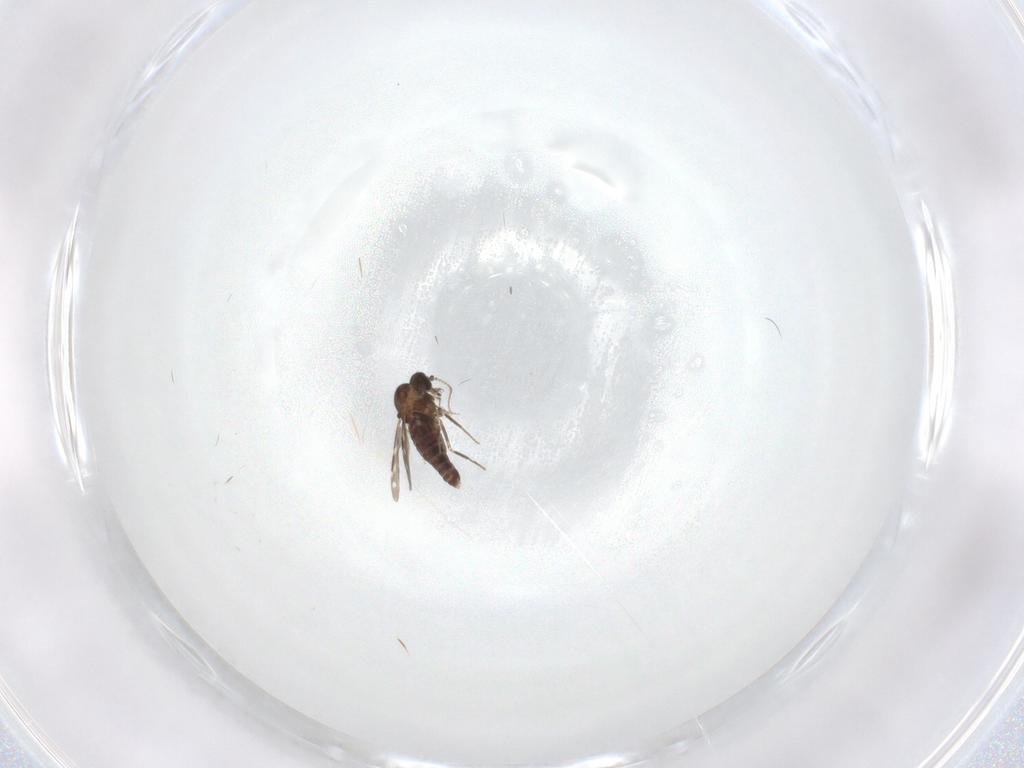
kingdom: Animalia
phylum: Arthropoda
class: Insecta
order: Diptera
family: Ceratopogonidae
